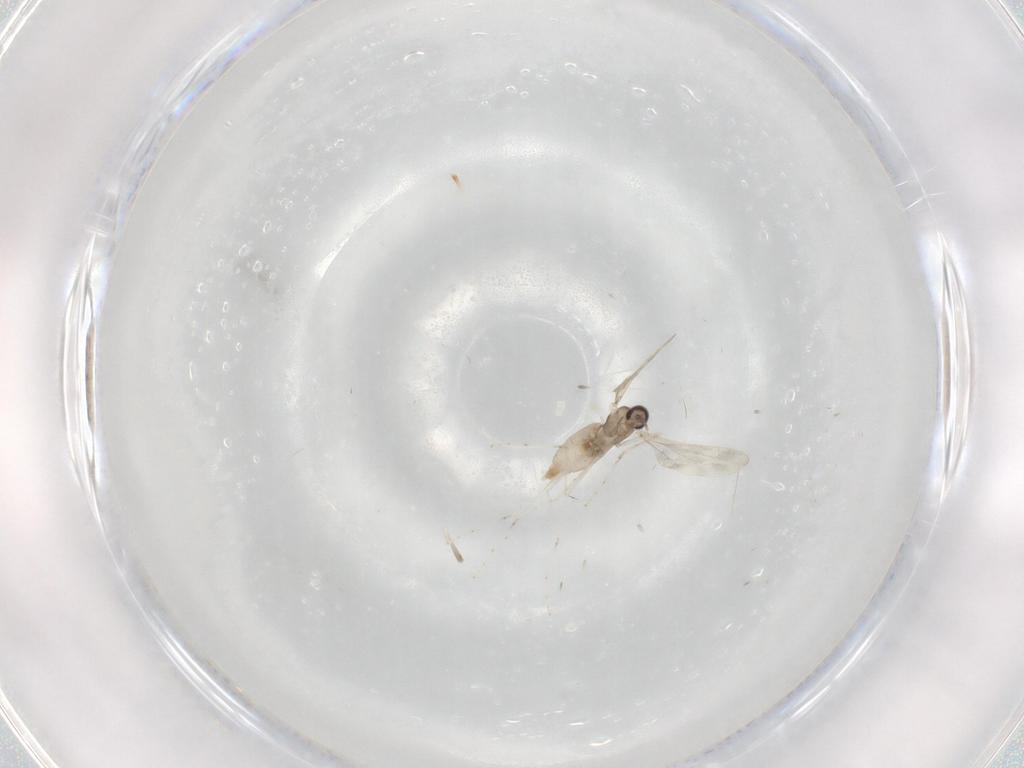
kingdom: Animalia
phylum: Arthropoda
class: Insecta
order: Diptera
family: Cecidomyiidae
